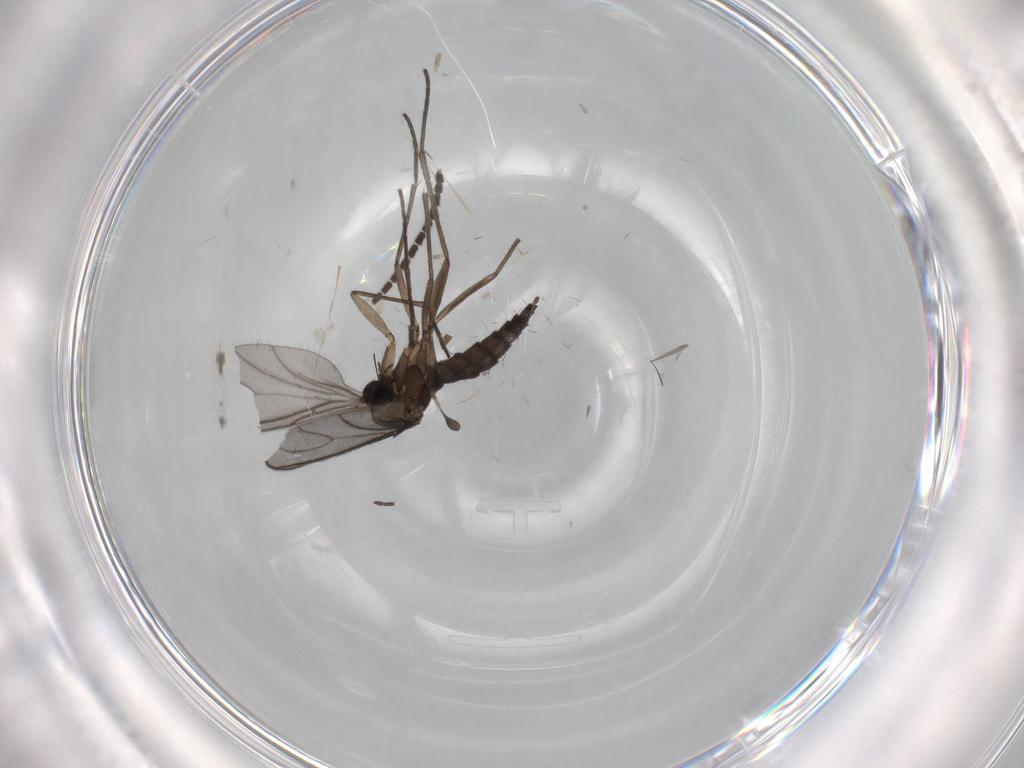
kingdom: Animalia
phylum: Arthropoda
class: Insecta
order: Diptera
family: Sciaridae
